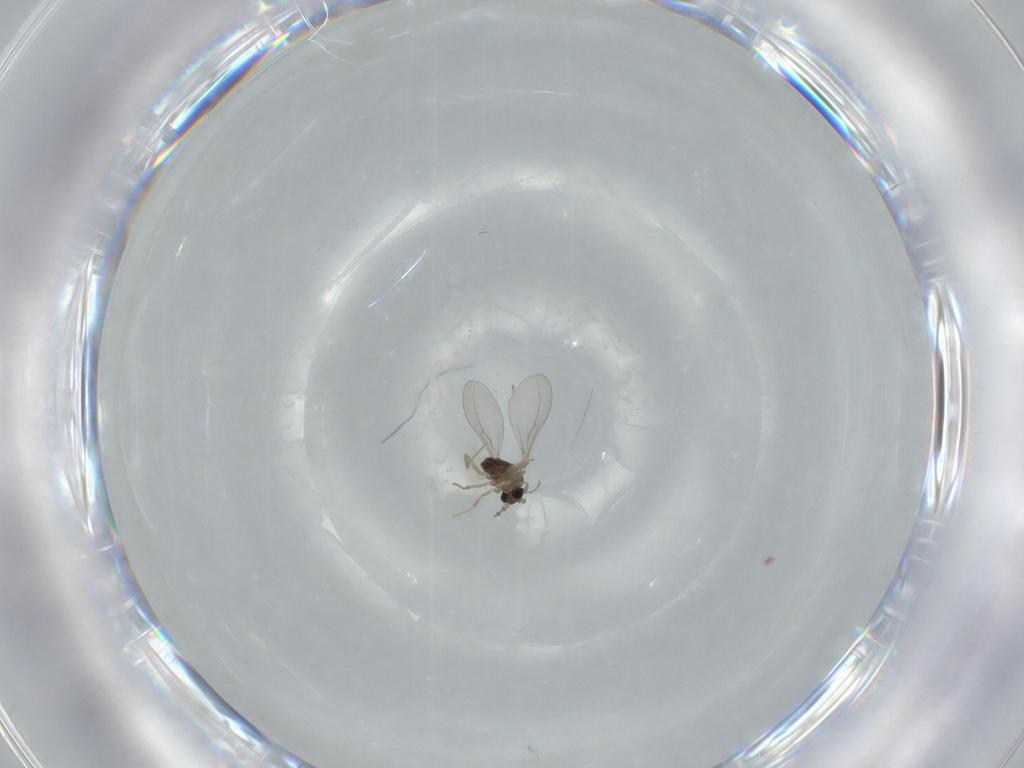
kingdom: Animalia
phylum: Arthropoda
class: Insecta
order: Diptera
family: Cecidomyiidae
